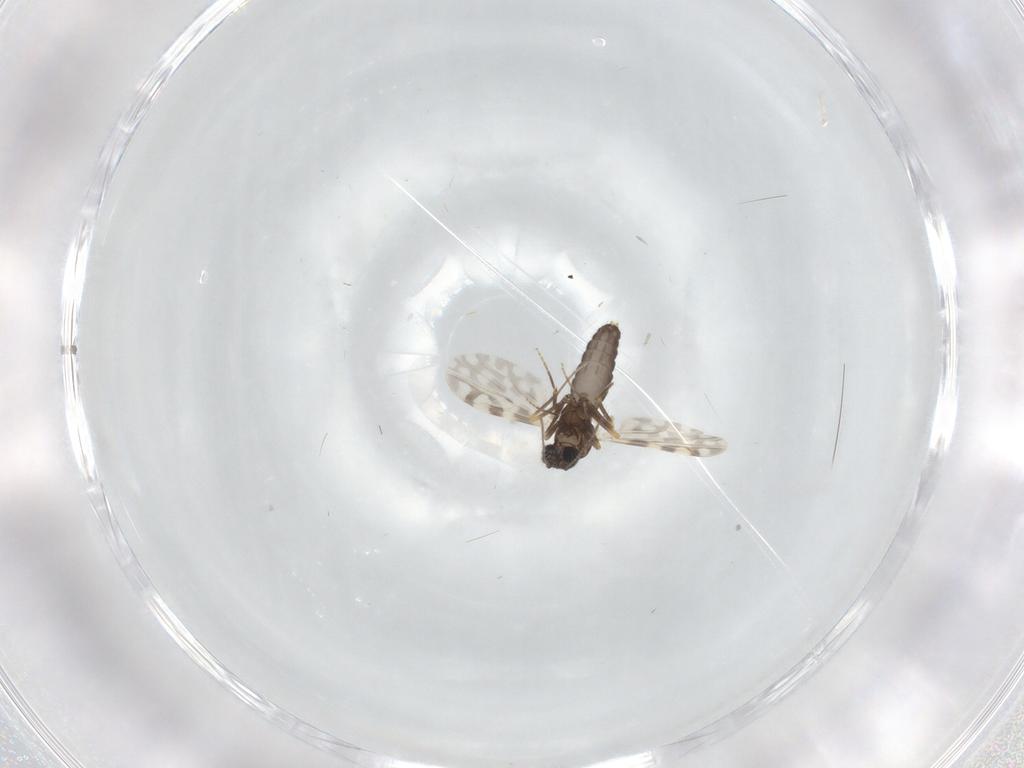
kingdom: Animalia
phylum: Arthropoda
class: Insecta
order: Diptera
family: Ceratopogonidae
